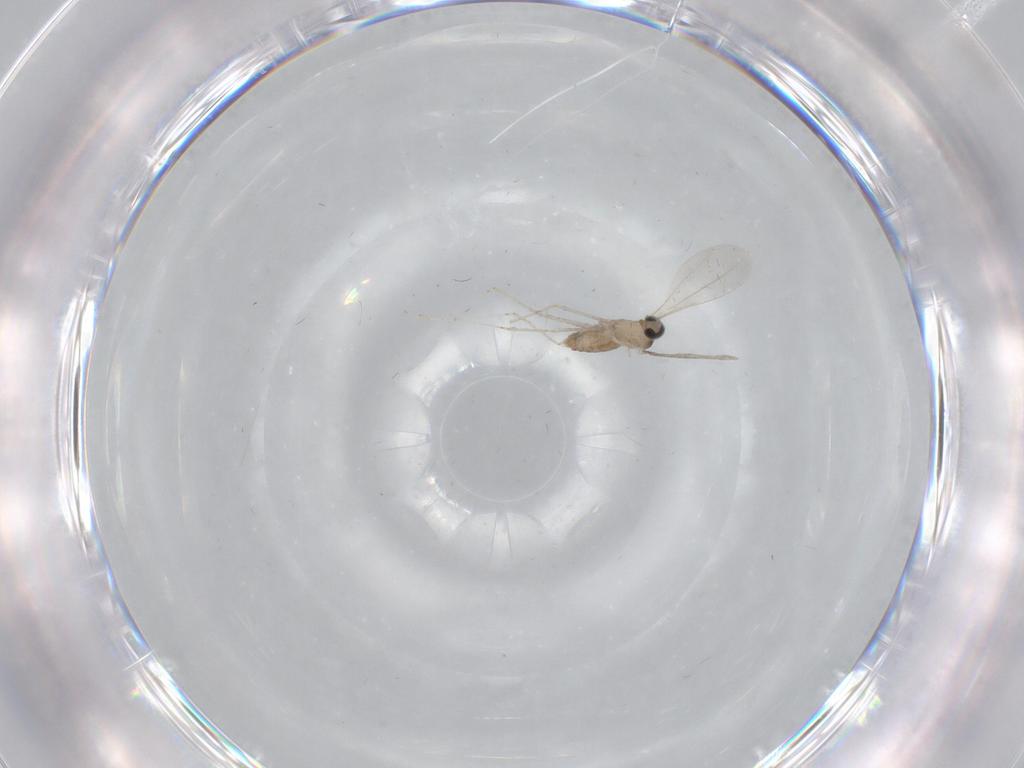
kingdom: Animalia
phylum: Arthropoda
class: Insecta
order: Diptera
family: Cecidomyiidae
